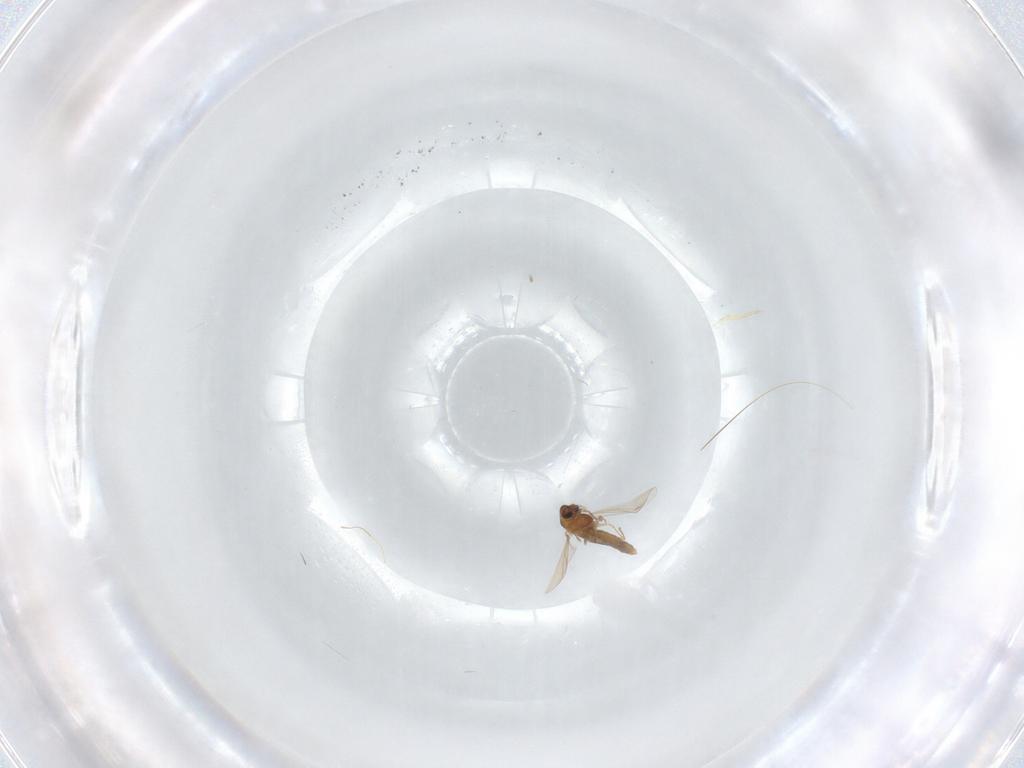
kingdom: Animalia
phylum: Arthropoda
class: Insecta
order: Diptera
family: Chironomidae
